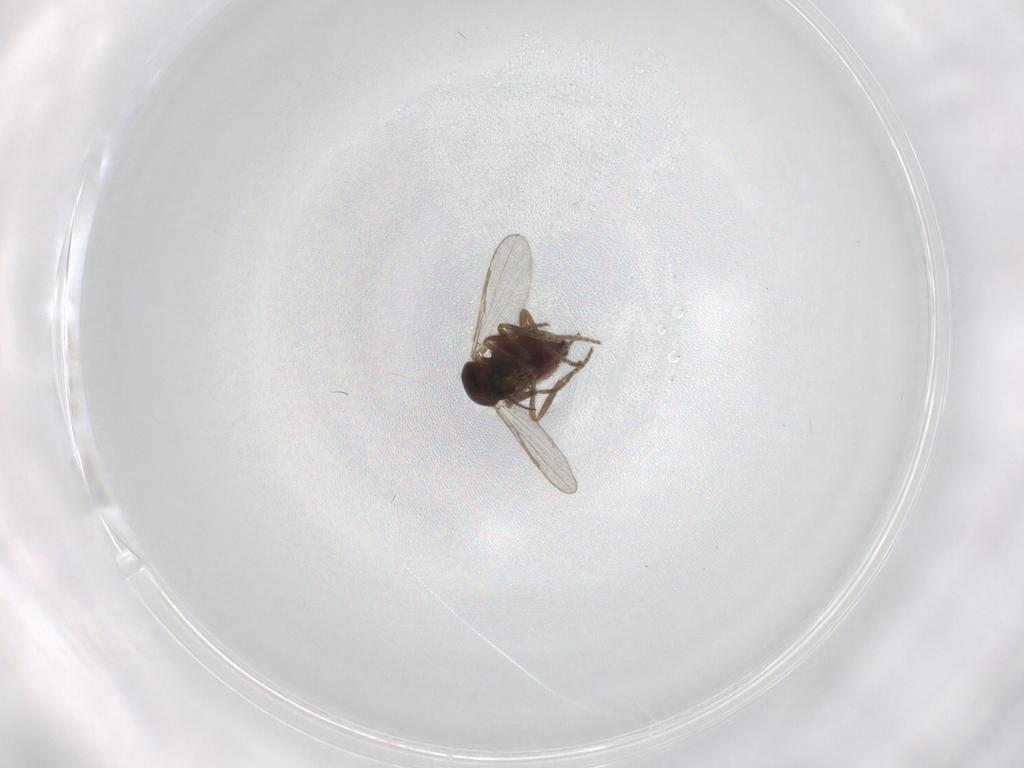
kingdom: Animalia
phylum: Arthropoda
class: Insecta
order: Diptera
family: Ceratopogonidae
